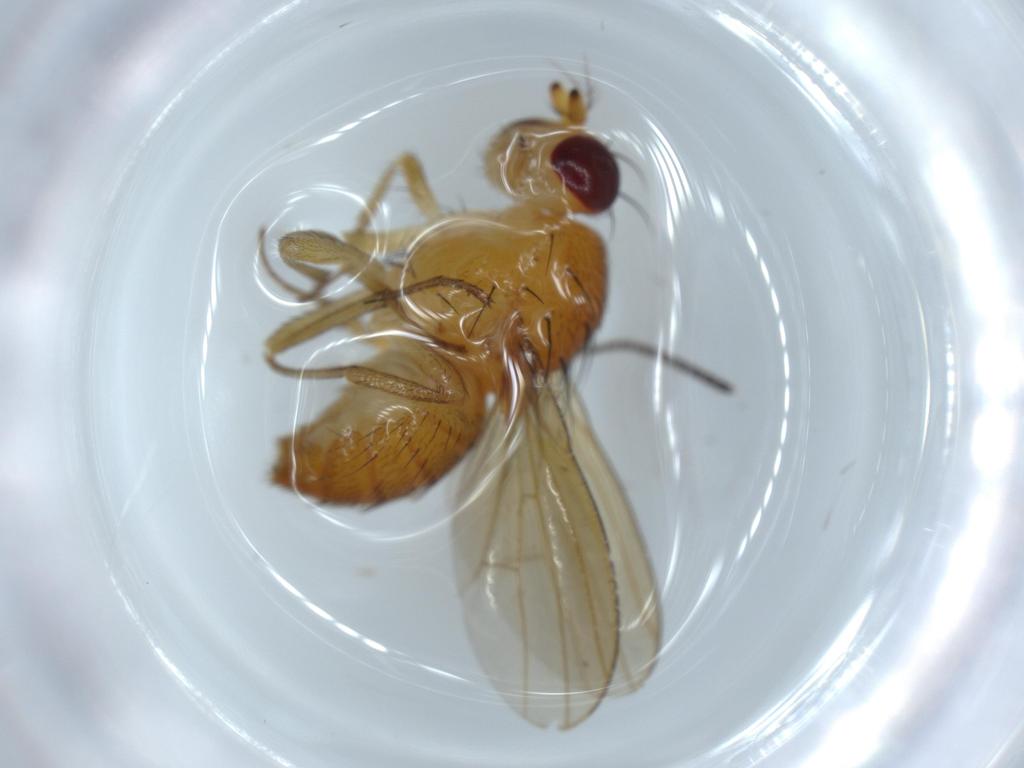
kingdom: Animalia
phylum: Arthropoda
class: Insecta
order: Diptera
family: Lauxaniidae
